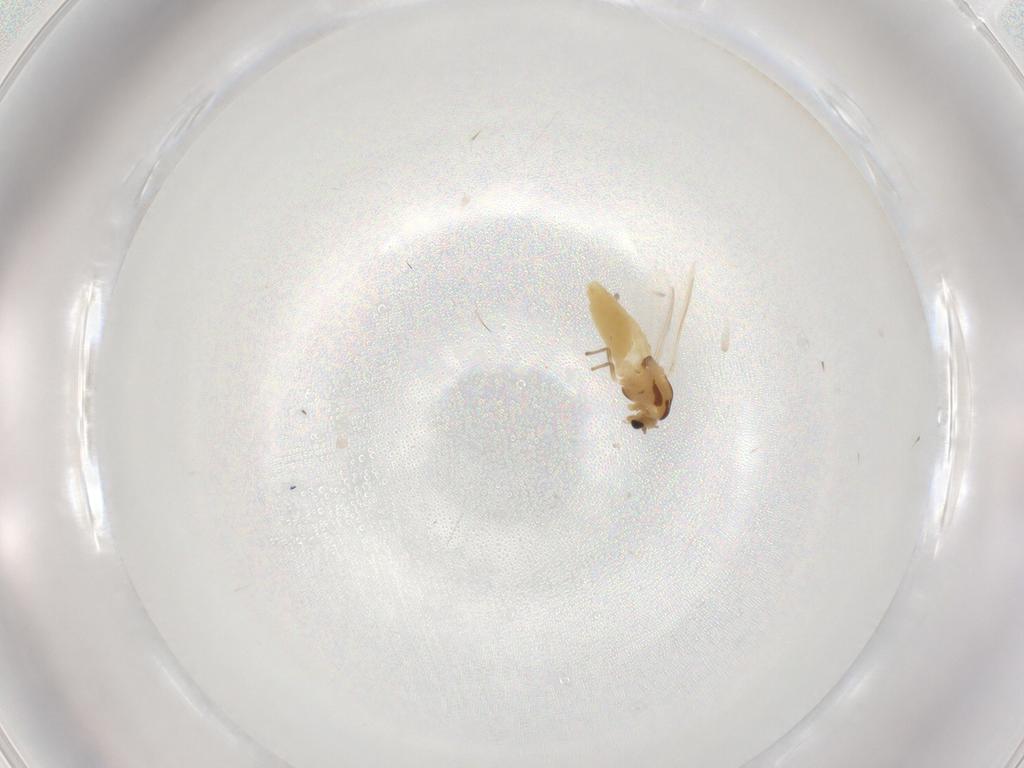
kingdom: Animalia
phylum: Arthropoda
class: Insecta
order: Diptera
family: Chironomidae
